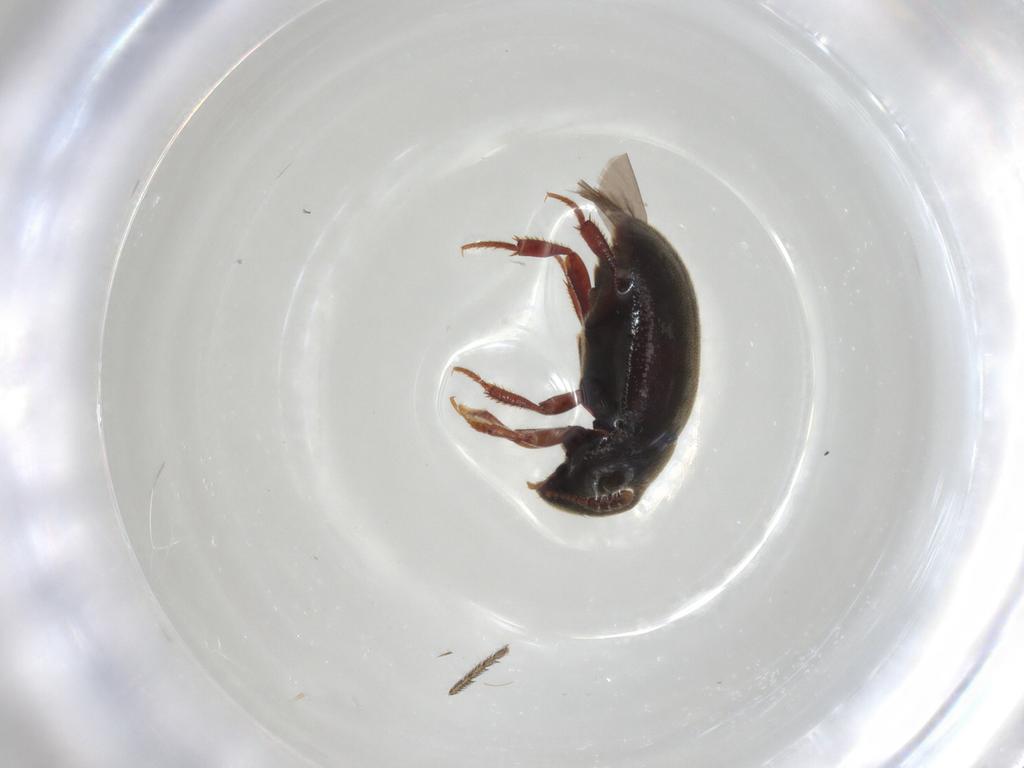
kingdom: Animalia
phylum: Arthropoda
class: Insecta
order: Diptera
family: Muscidae
